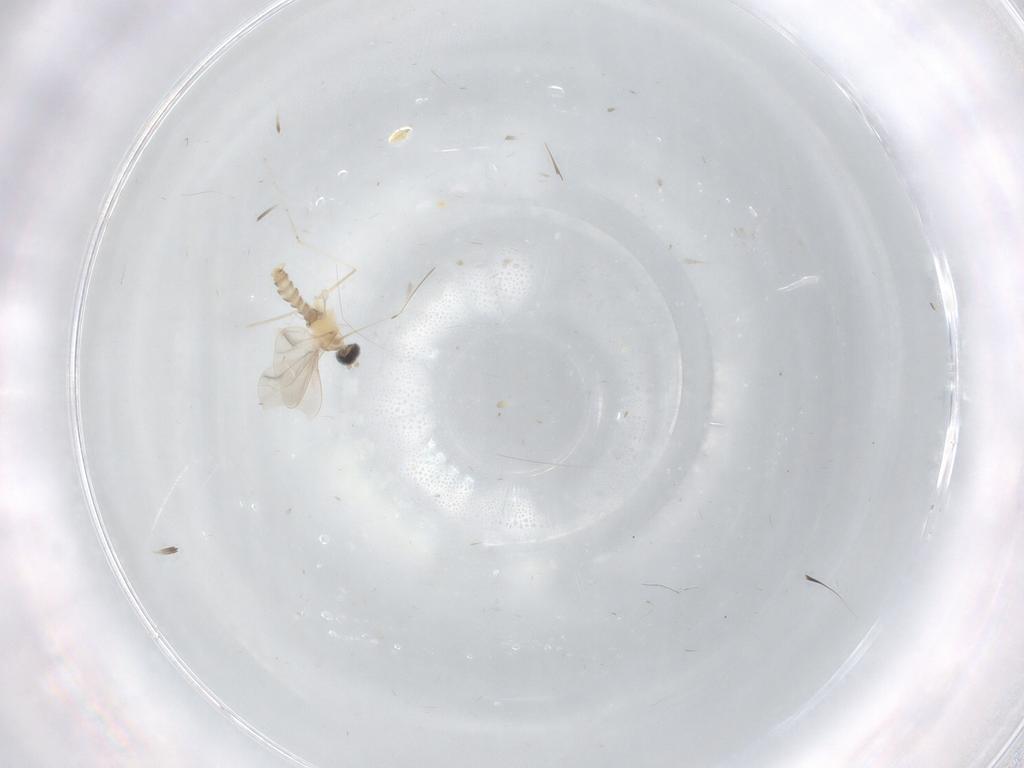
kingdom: Animalia
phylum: Arthropoda
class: Insecta
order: Diptera
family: Cecidomyiidae
